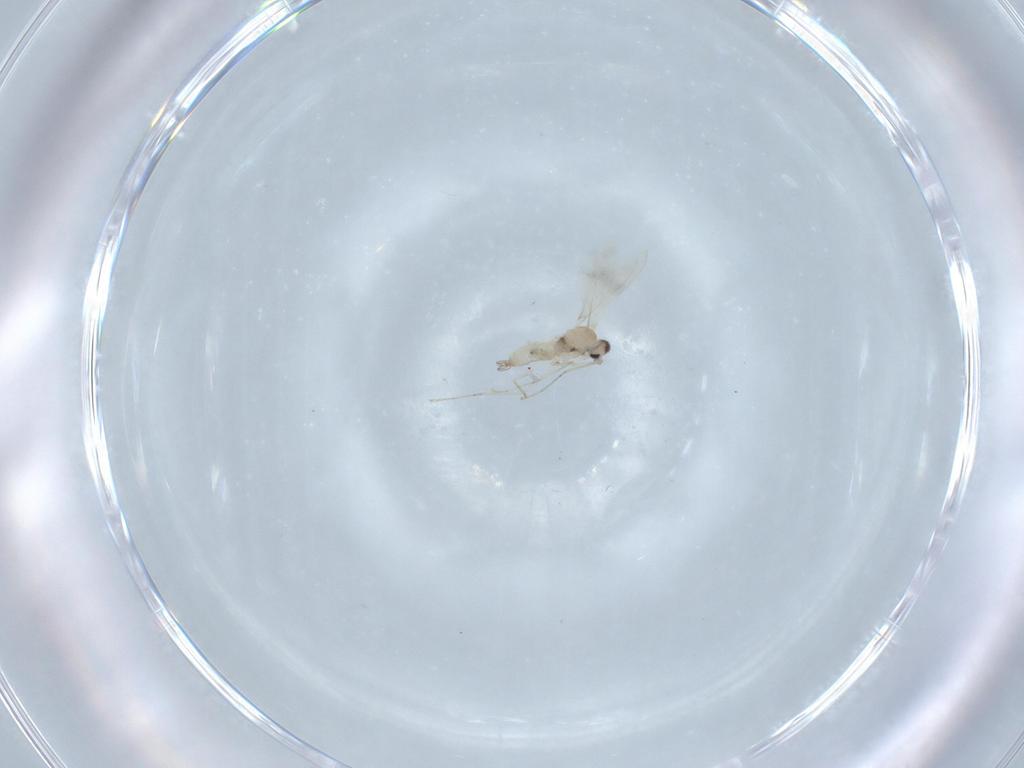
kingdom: Animalia
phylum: Arthropoda
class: Insecta
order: Diptera
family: Cecidomyiidae
